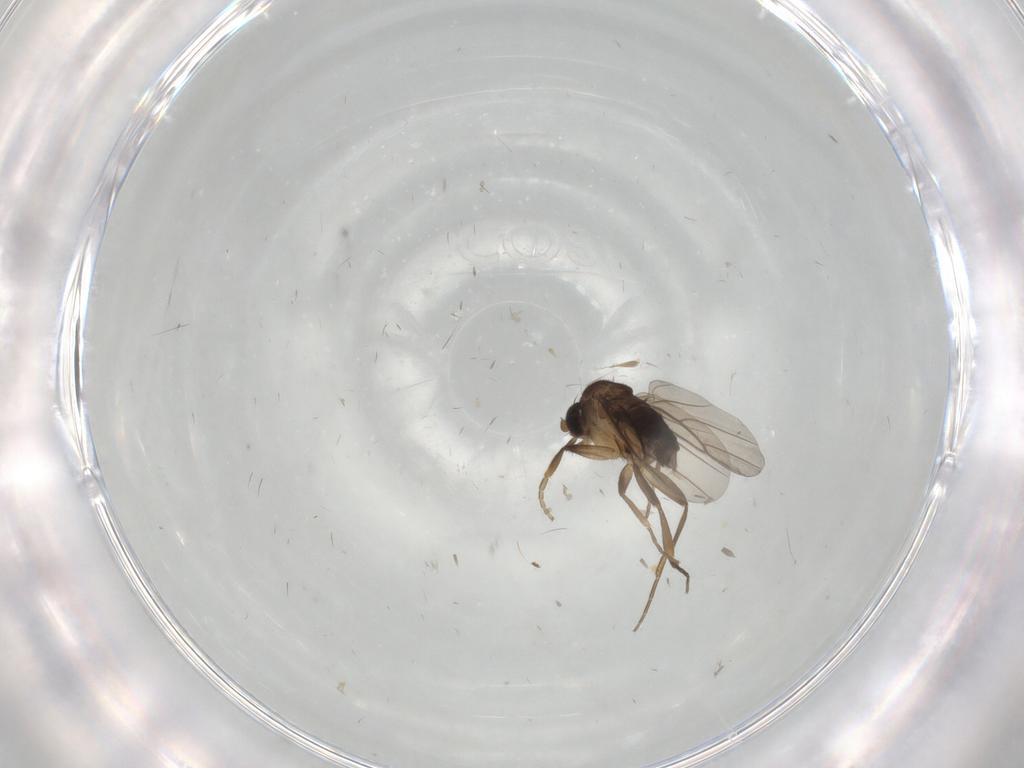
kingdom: Animalia
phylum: Arthropoda
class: Insecta
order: Diptera
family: Phoridae
